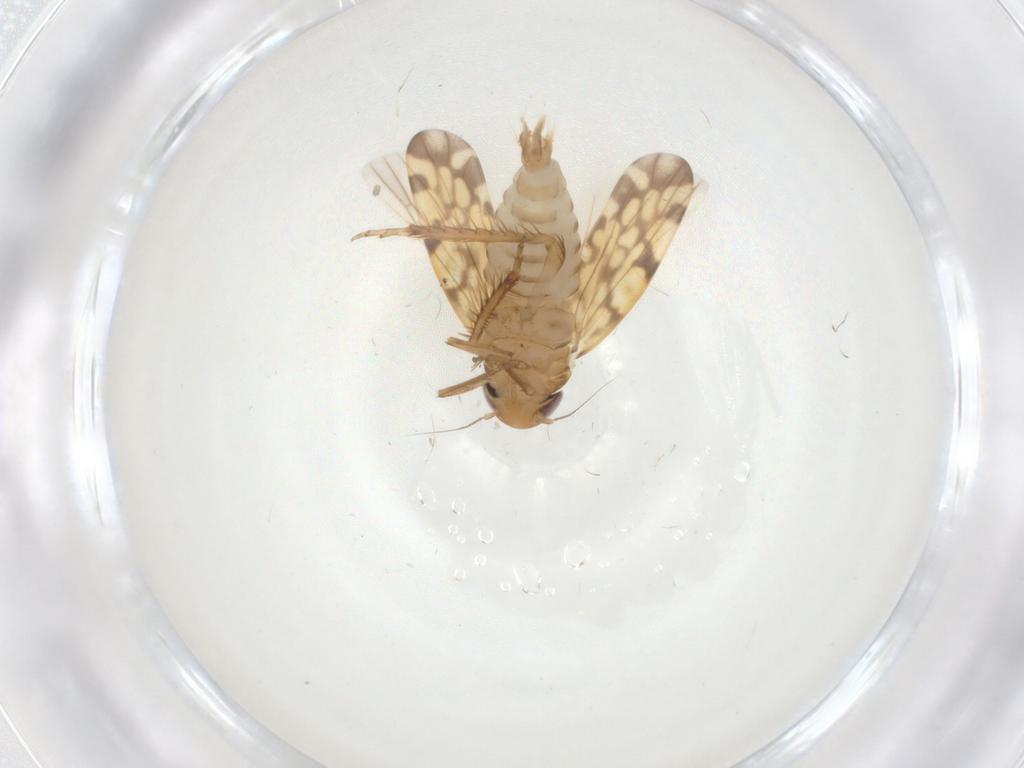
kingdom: Animalia
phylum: Arthropoda
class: Insecta
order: Hemiptera
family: Cicadellidae
